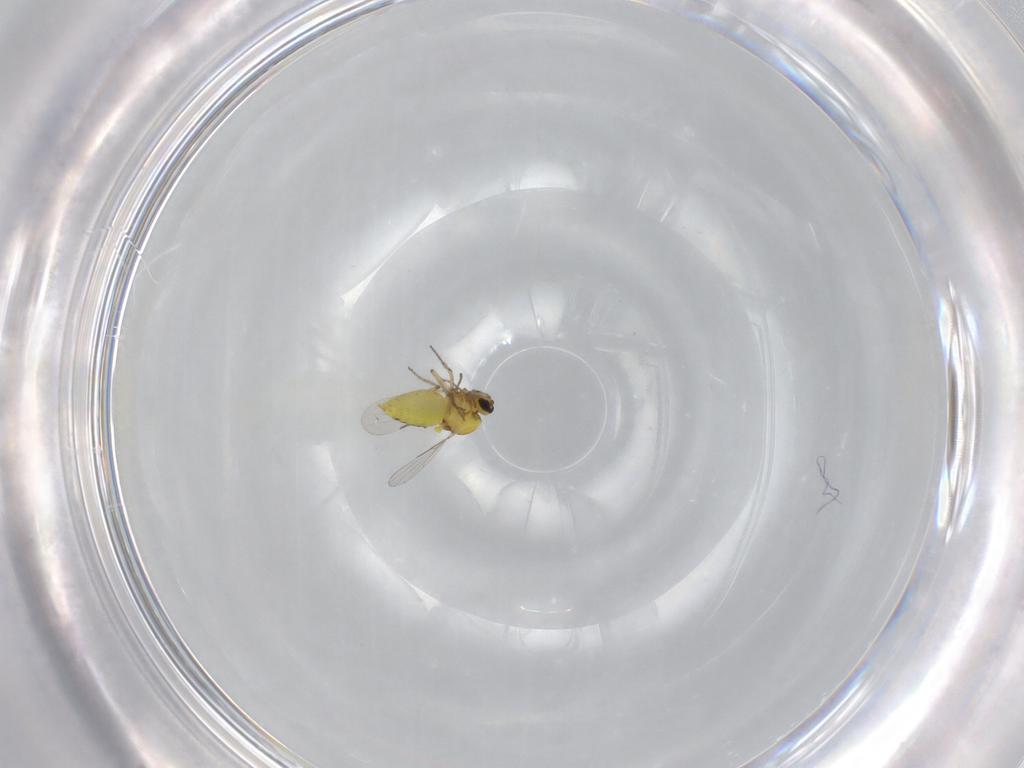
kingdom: Animalia
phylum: Arthropoda
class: Insecta
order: Diptera
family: Ceratopogonidae
